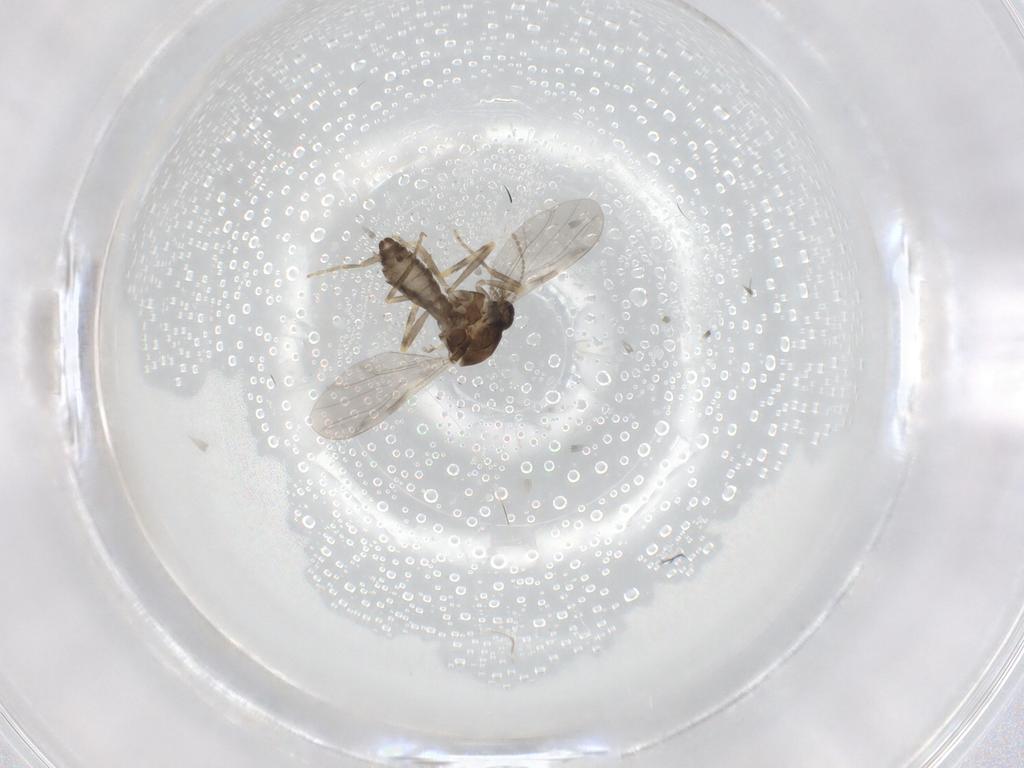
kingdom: Animalia
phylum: Arthropoda
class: Insecta
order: Diptera
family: Ceratopogonidae
